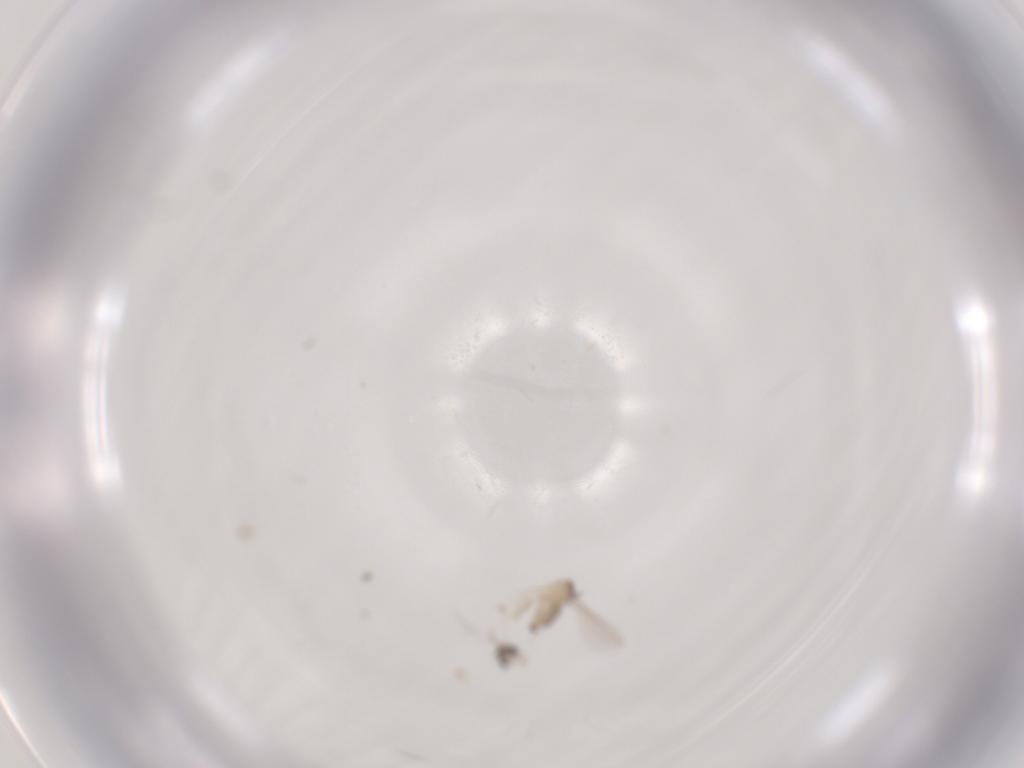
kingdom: Animalia
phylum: Arthropoda
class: Insecta
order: Diptera
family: Cecidomyiidae
